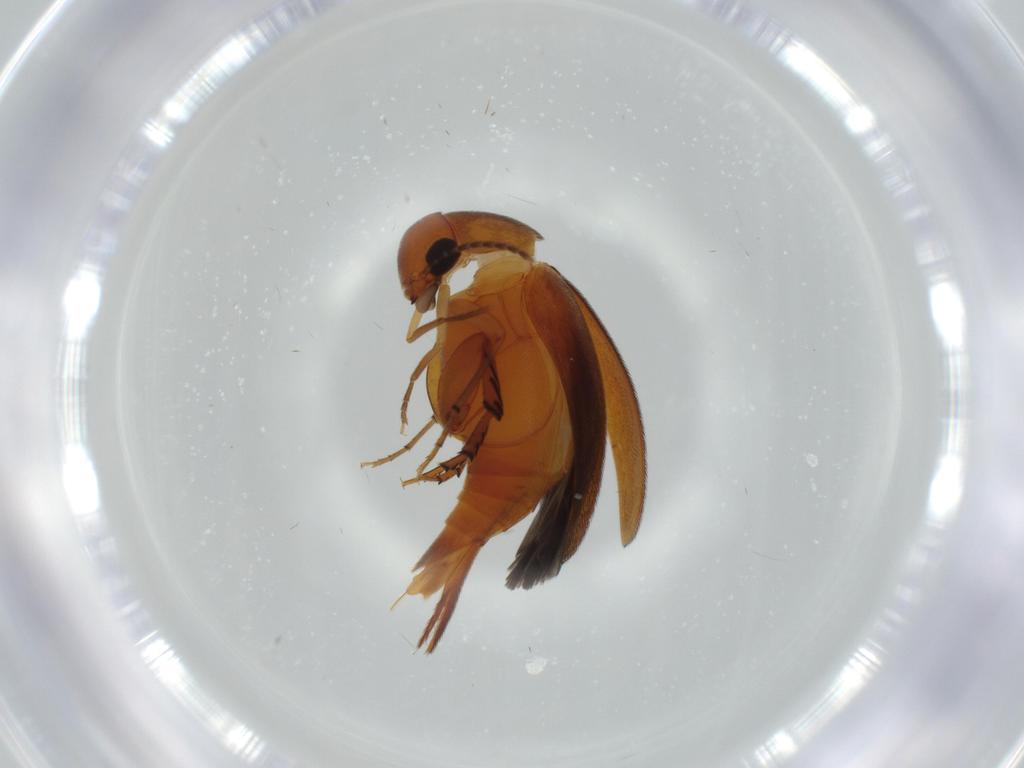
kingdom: Animalia
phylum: Arthropoda
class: Insecta
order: Coleoptera
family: Mordellidae
